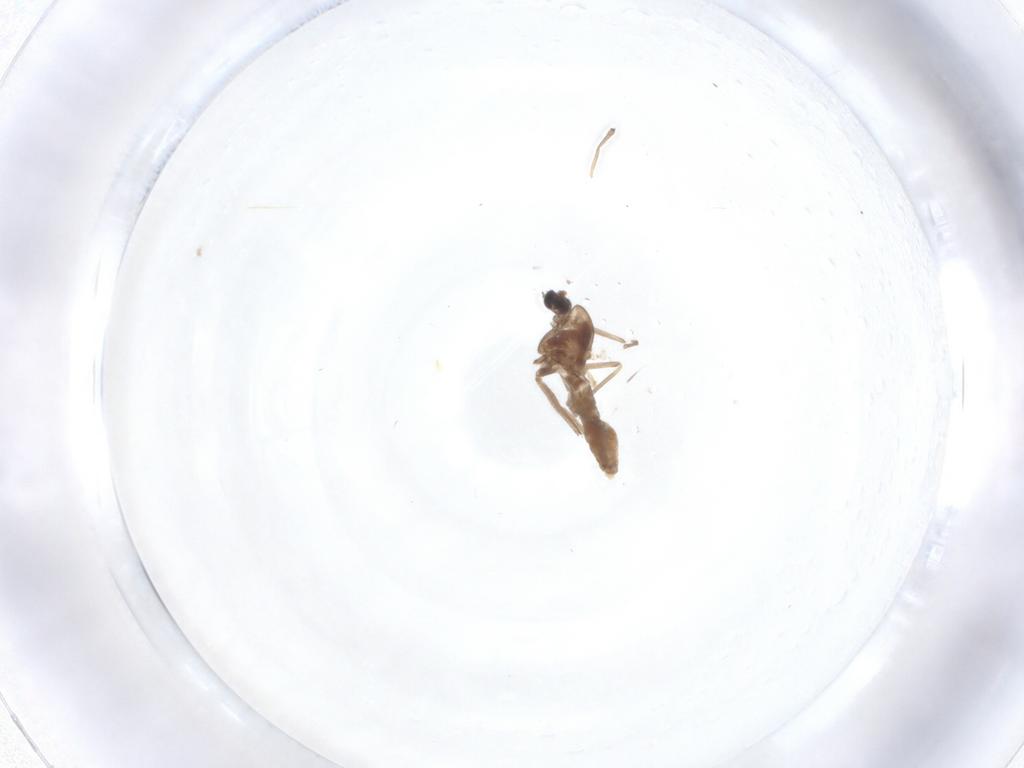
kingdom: Animalia
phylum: Arthropoda
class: Insecta
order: Diptera
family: Chironomidae
